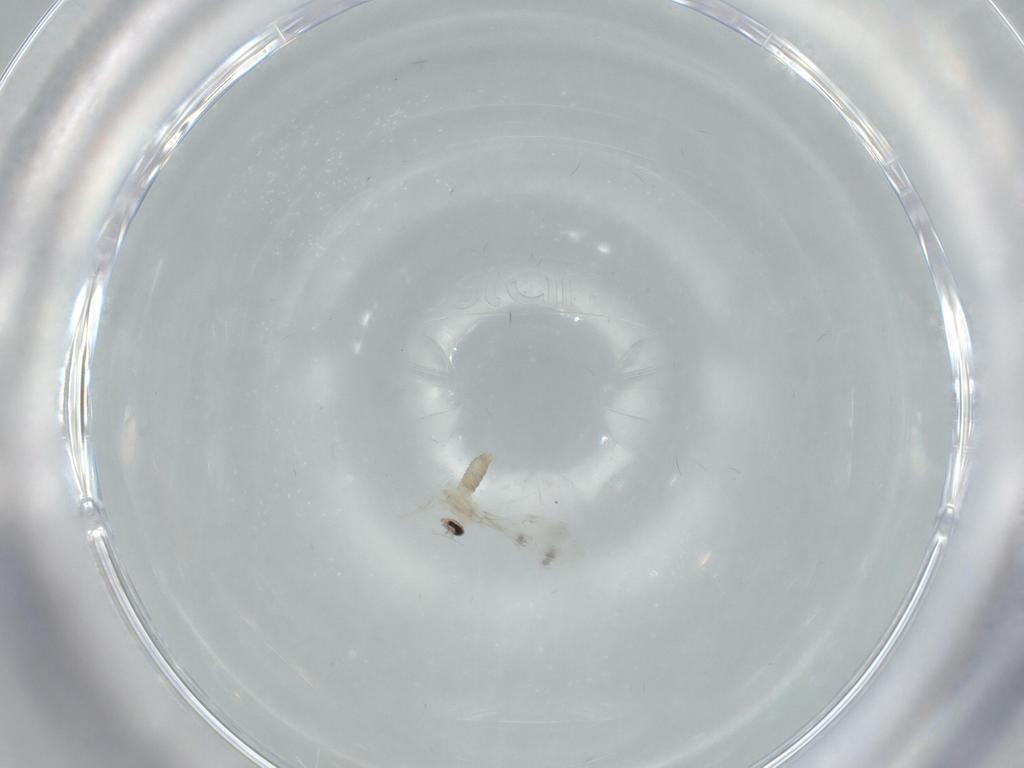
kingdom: Animalia
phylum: Arthropoda
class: Insecta
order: Diptera
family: Cecidomyiidae
